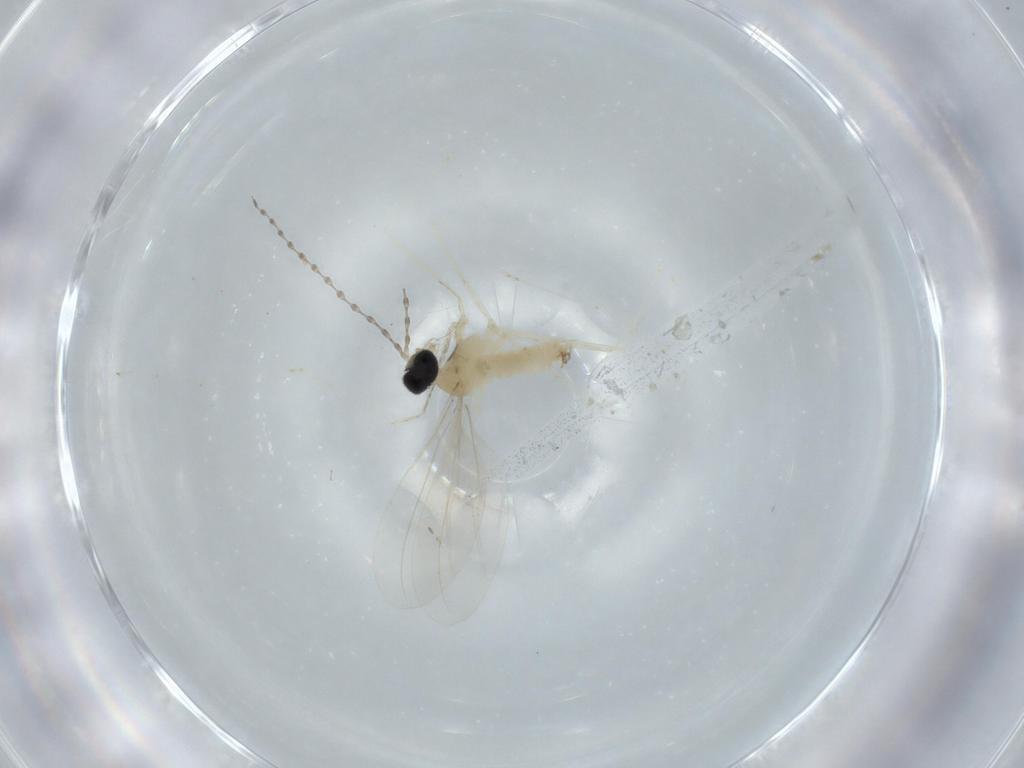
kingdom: Animalia
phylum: Arthropoda
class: Insecta
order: Diptera
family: Cecidomyiidae
